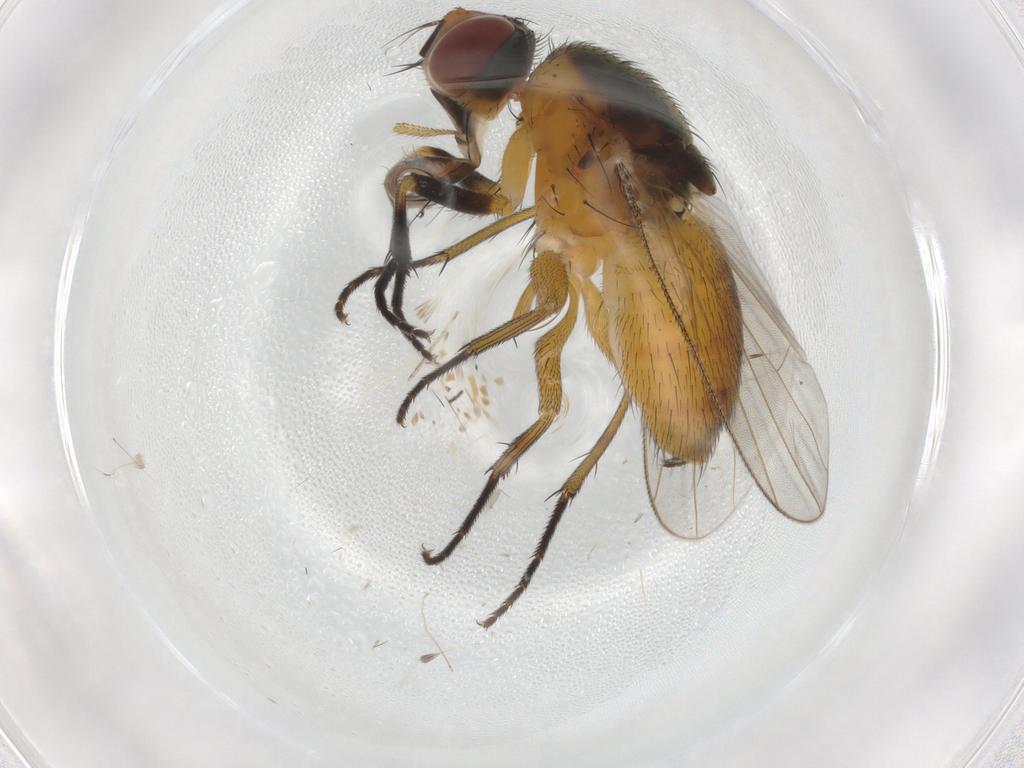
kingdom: Animalia
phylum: Arthropoda
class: Insecta
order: Diptera
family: Muscidae
